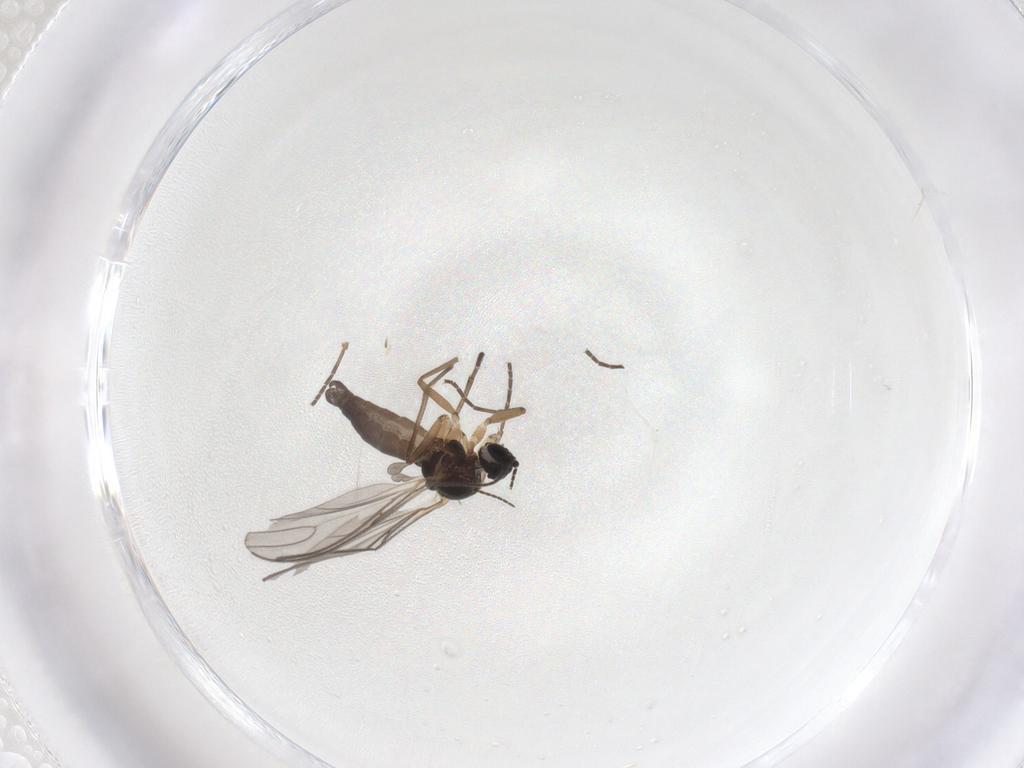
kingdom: Animalia
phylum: Arthropoda
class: Insecta
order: Diptera
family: Sciaridae
